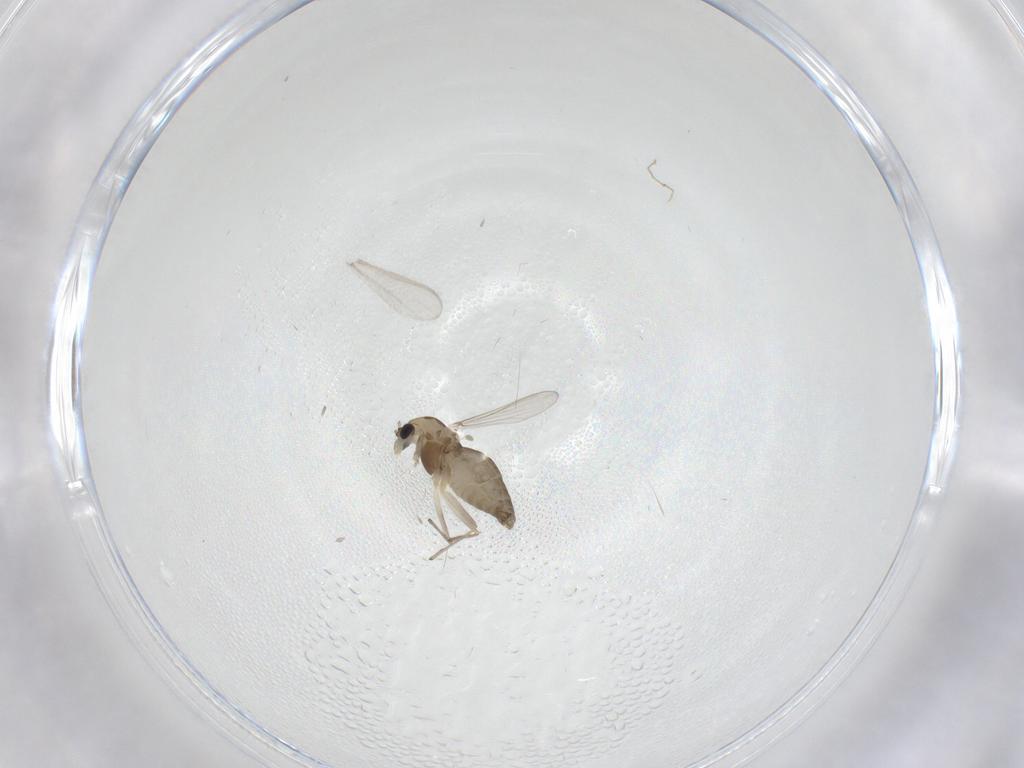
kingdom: Animalia
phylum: Arthropoda
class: Insecta
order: Diptera
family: Chironomidae
